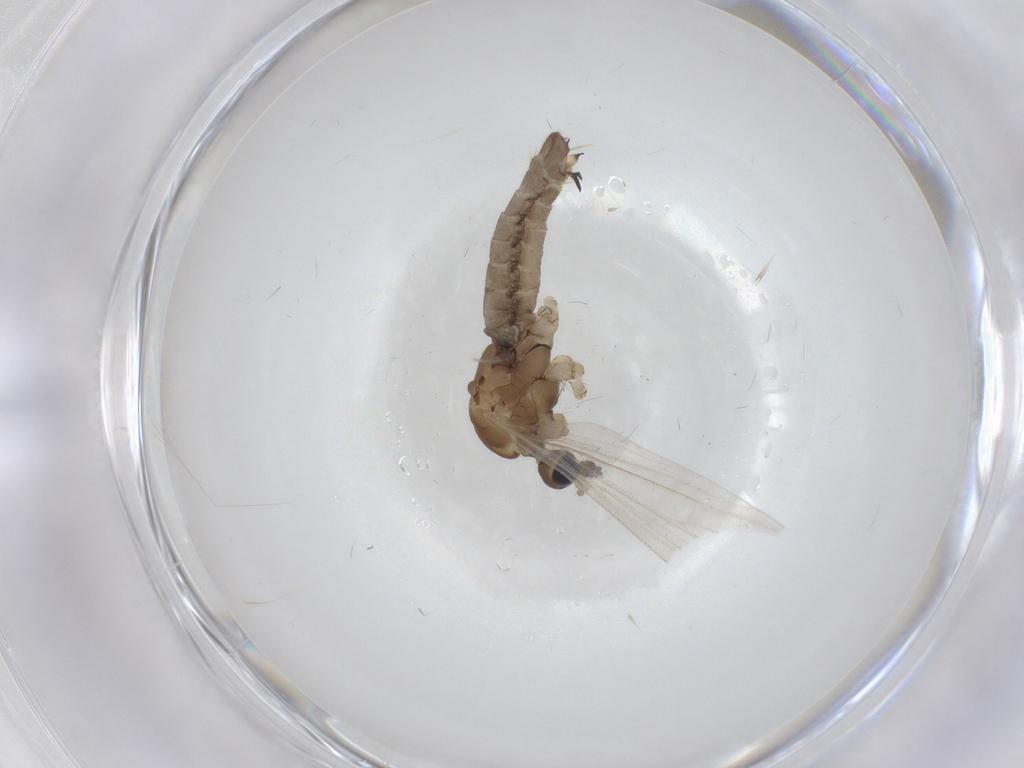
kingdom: Animalia
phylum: Arthropoda
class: Insecta
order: Diptera
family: Limoniidae
